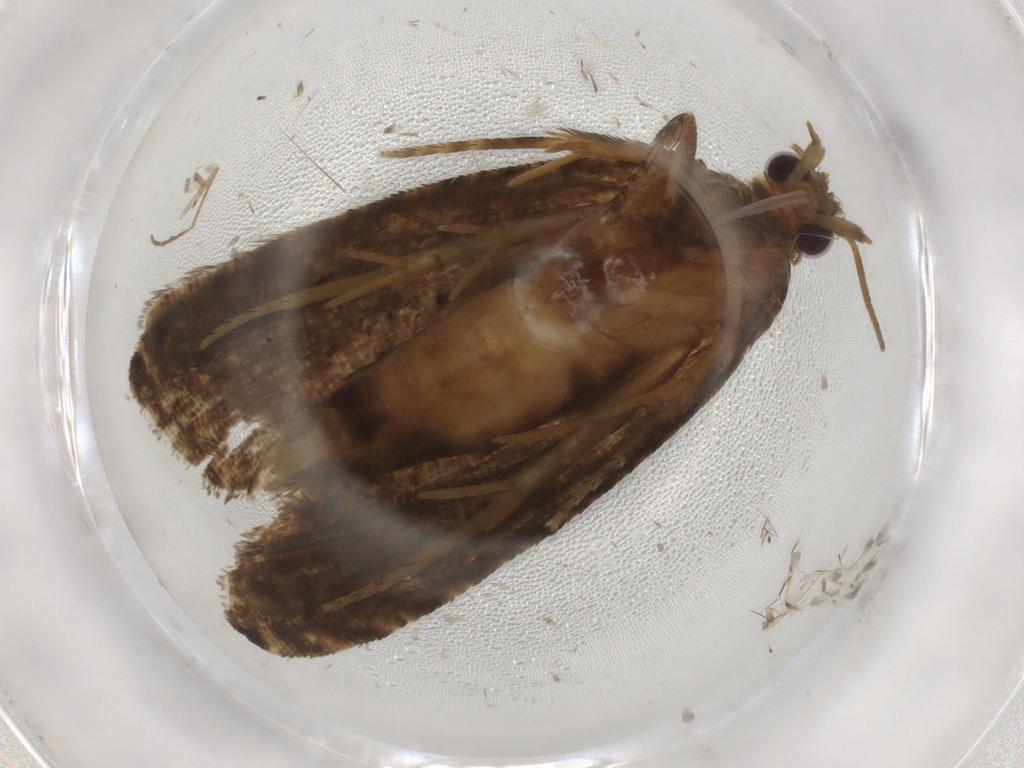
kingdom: Animalia
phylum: Arthropoda
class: Insecta
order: Lepidoptera
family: Tortricidae
